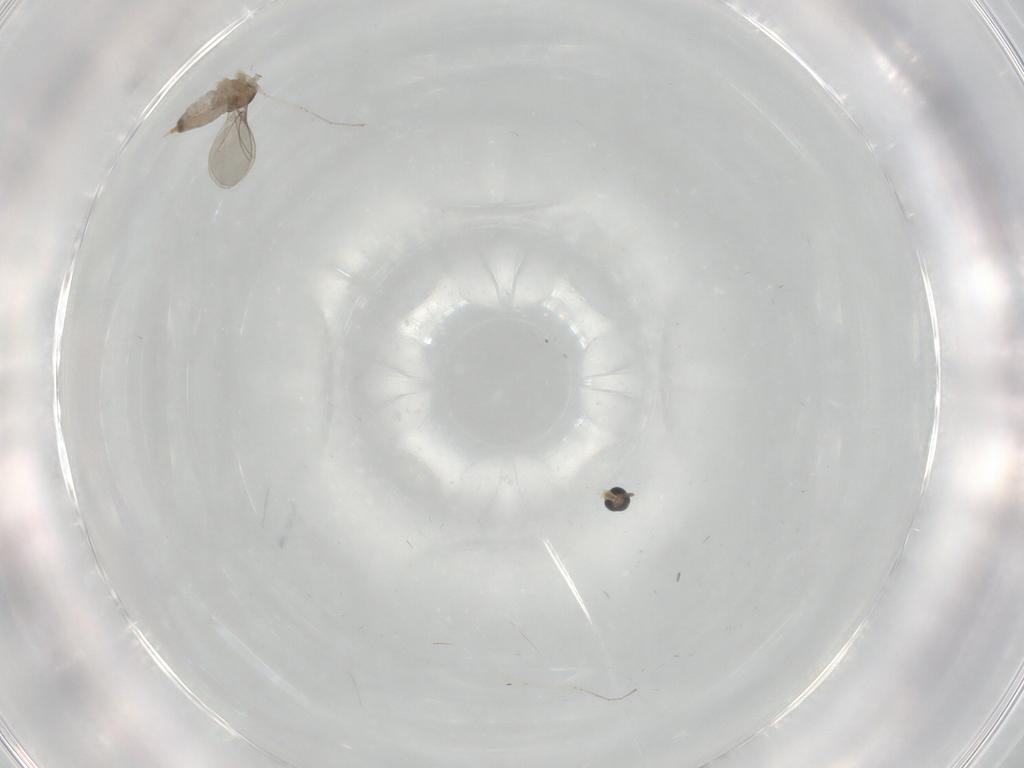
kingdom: Animalia
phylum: Arthropoda
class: Insecta
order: Diptera
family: Cecidomyiidae
